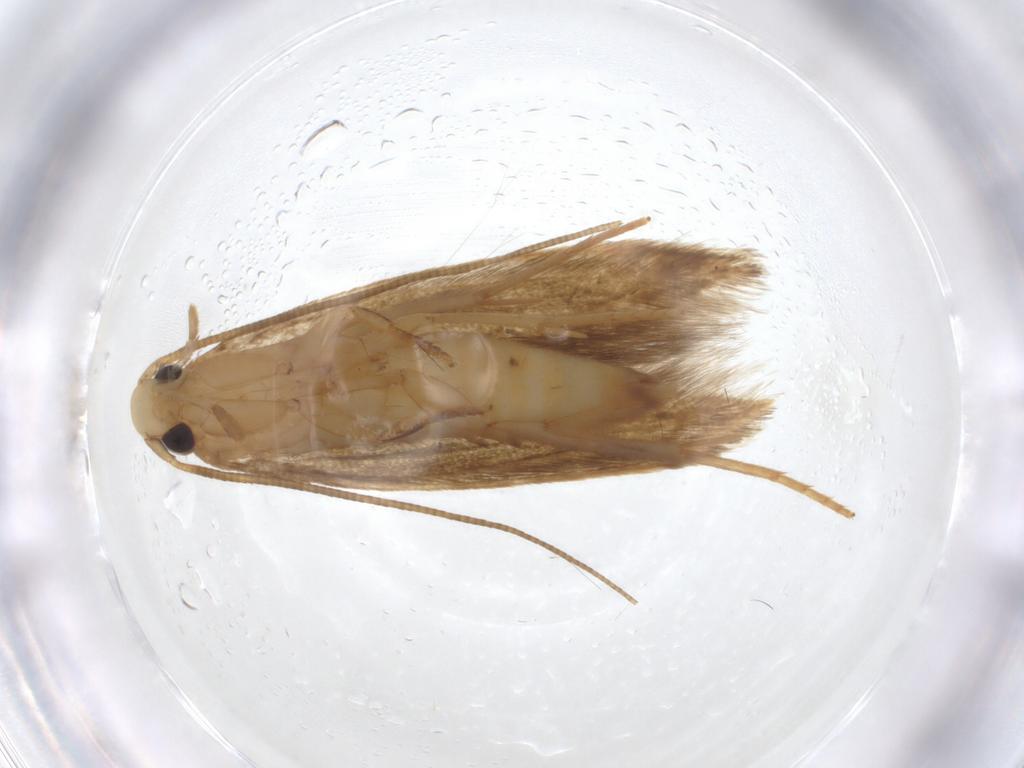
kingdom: Animalia
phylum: Arthropoda
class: Insecta
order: Lepidoptera
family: Tineidae
